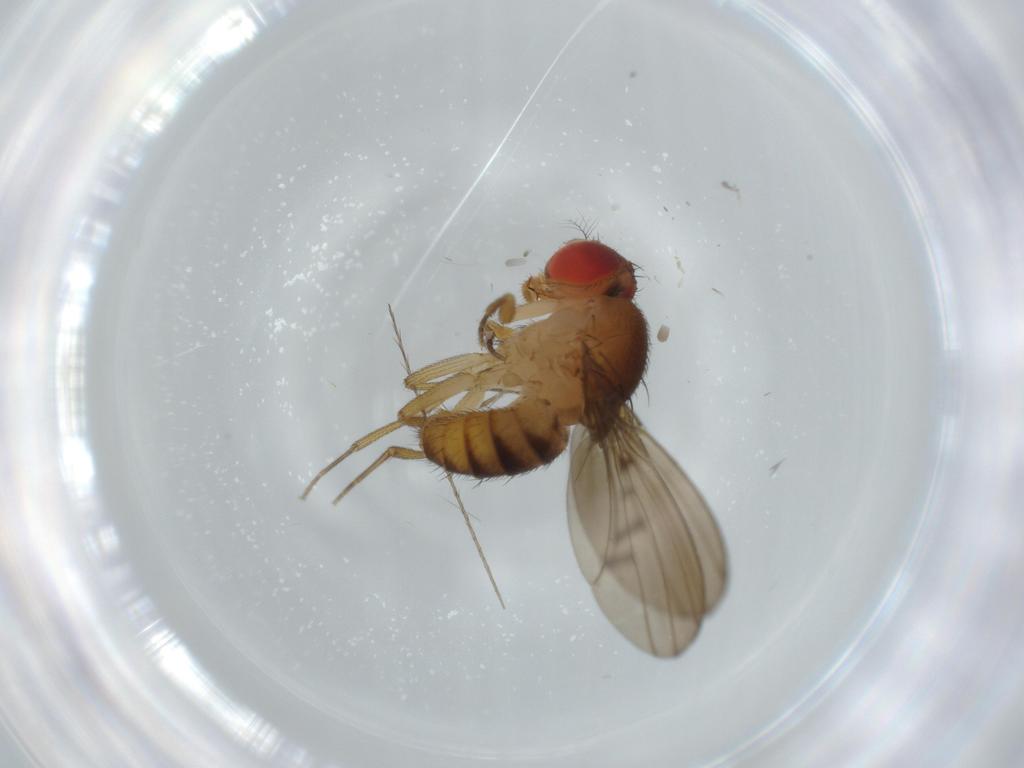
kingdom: Animalia
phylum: Arthropoda
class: Insecta
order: Diptera
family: Drosophilidae
